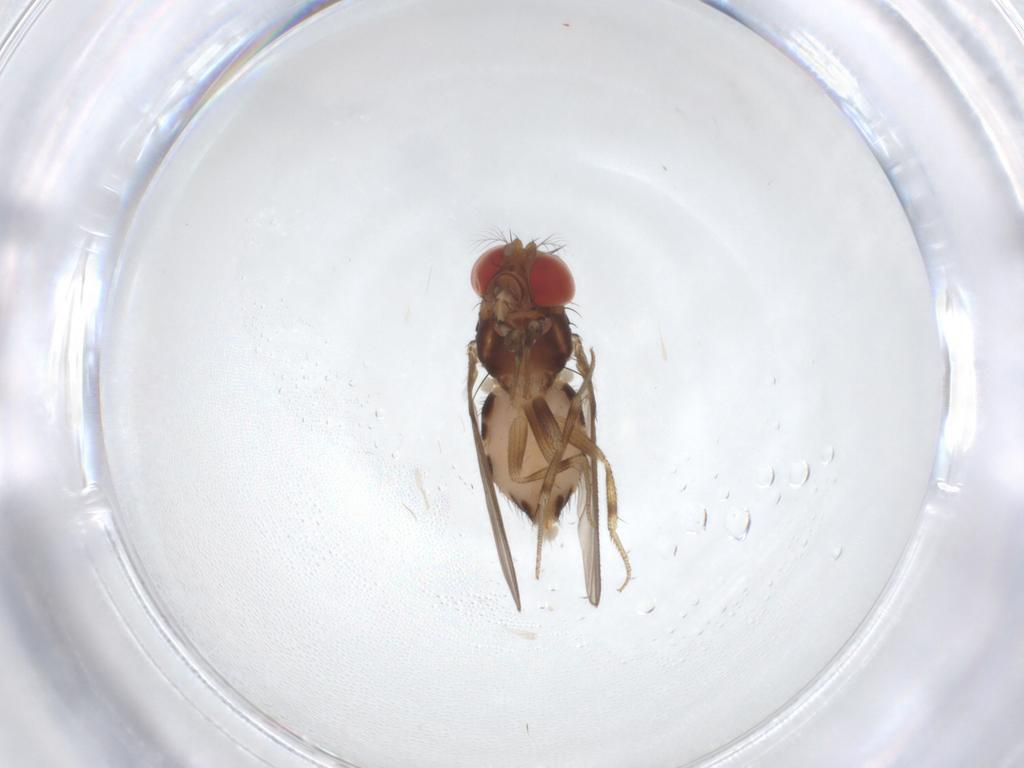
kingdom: Animalia
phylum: Arthropoda
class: Insecta
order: Diptera
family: Drosophilidae
